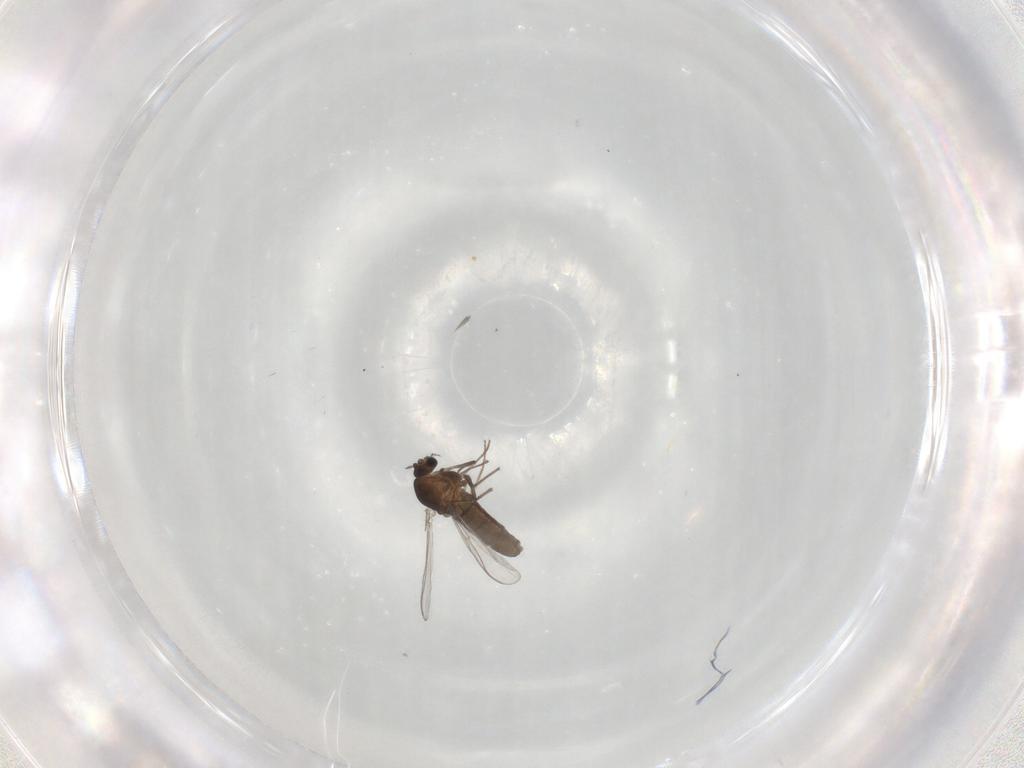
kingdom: Animalia
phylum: Arthropoda
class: Insecta
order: Diptera
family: Chironomidae
